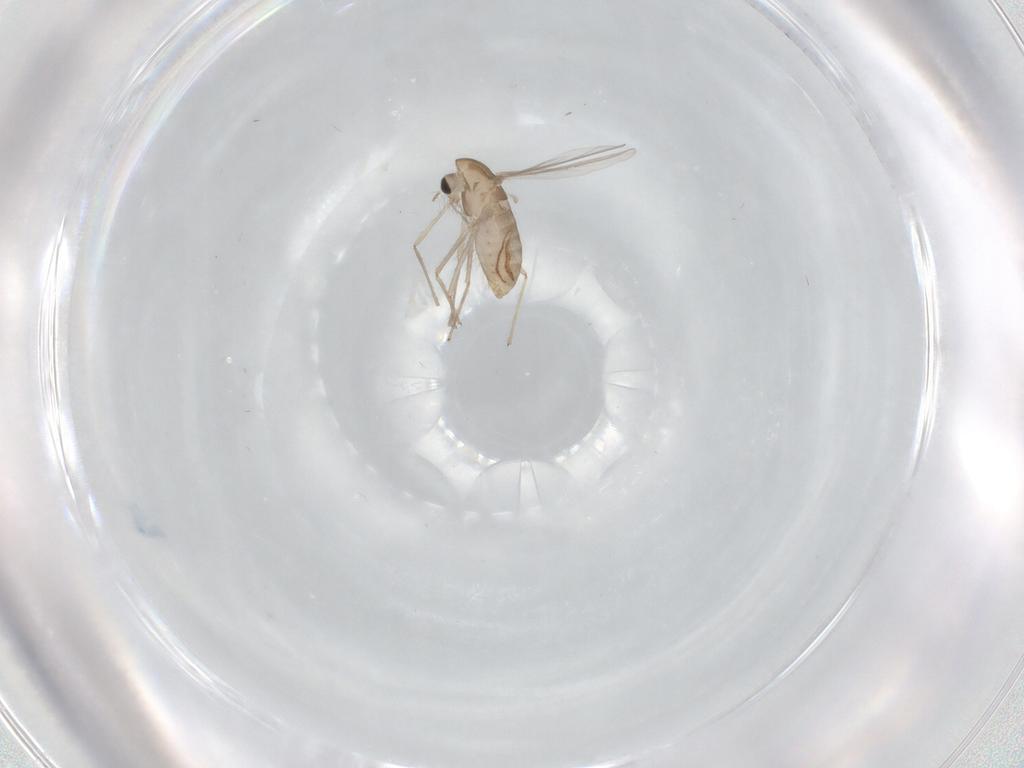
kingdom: Animalia
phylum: Arthropoda
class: Insecta
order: Diptera
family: Chironomidae
